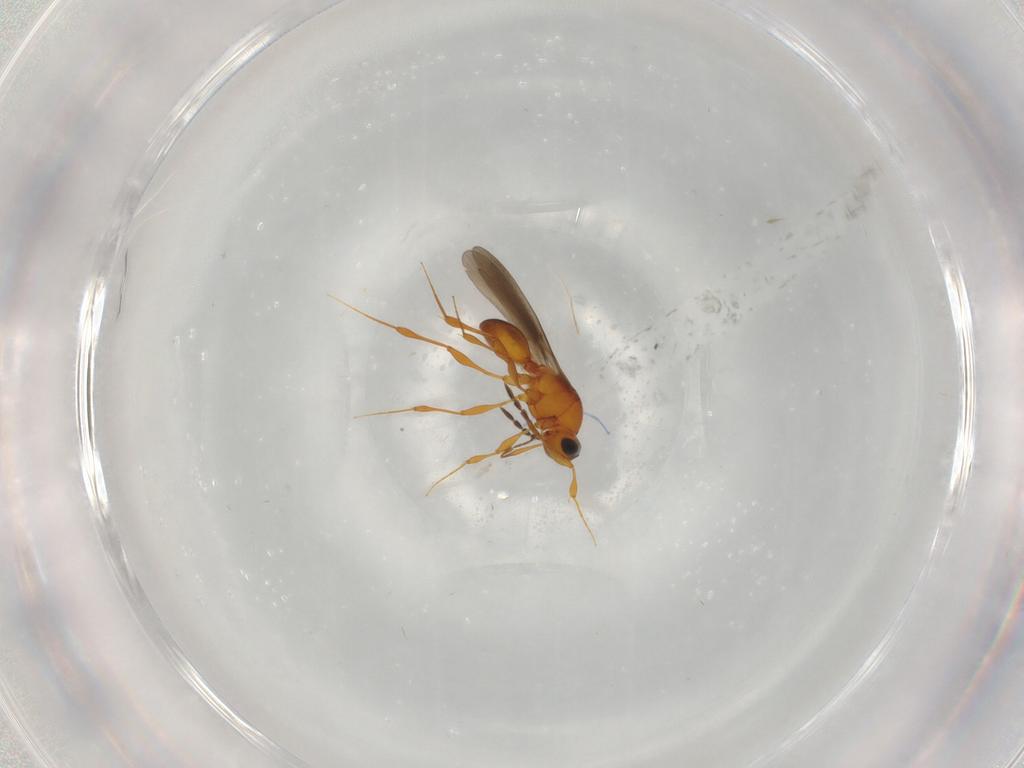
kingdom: Animalia
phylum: Arthropoda
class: Insecta
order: Hymenoptera
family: Platygastridae
